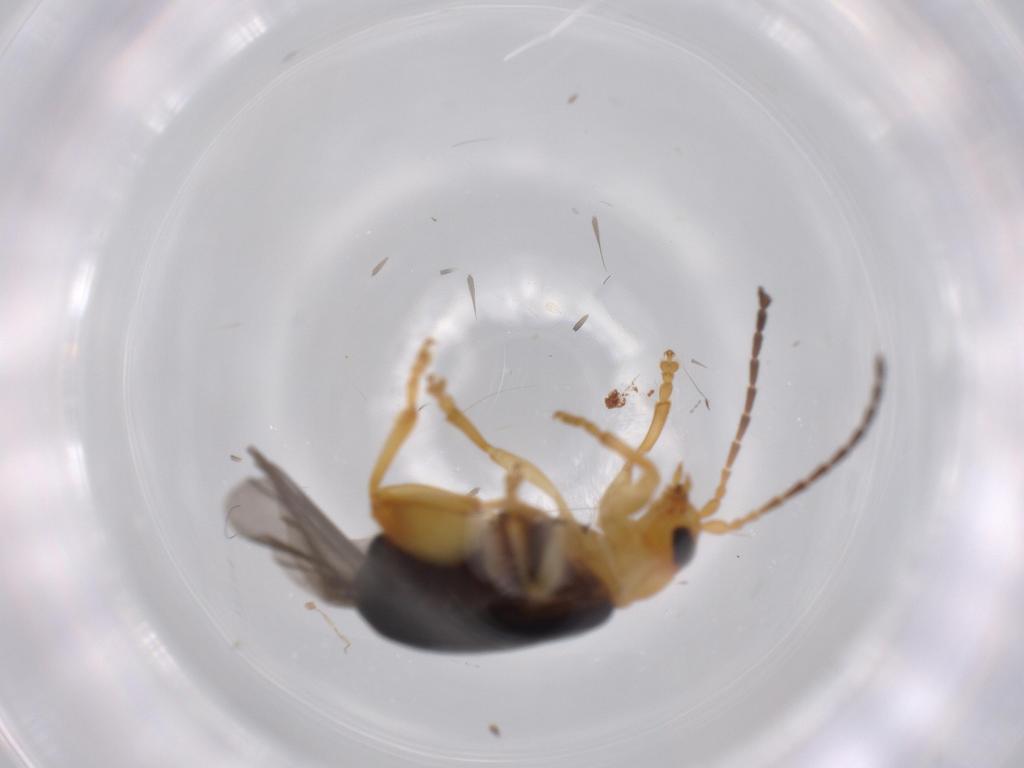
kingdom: Animalia
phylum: Arthropoda
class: Insecta
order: Coleoptera
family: Chrysomelidae
